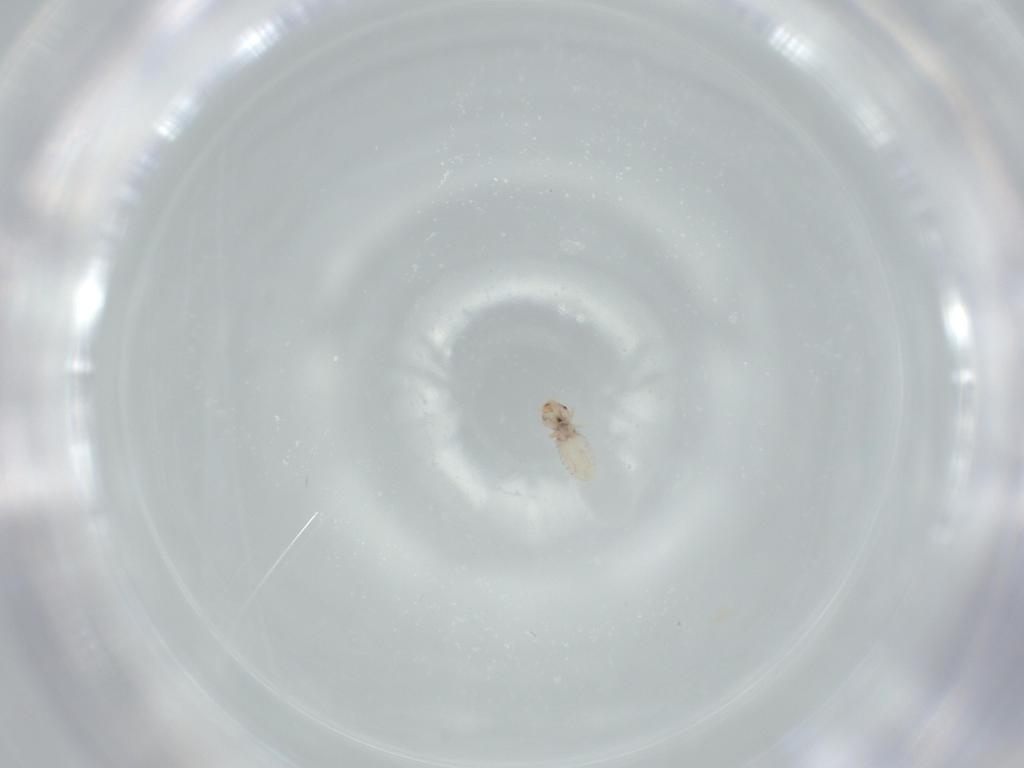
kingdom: Animalia
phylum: Arthropoda
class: Insecta
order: Psocodea
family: Liposcelididae
